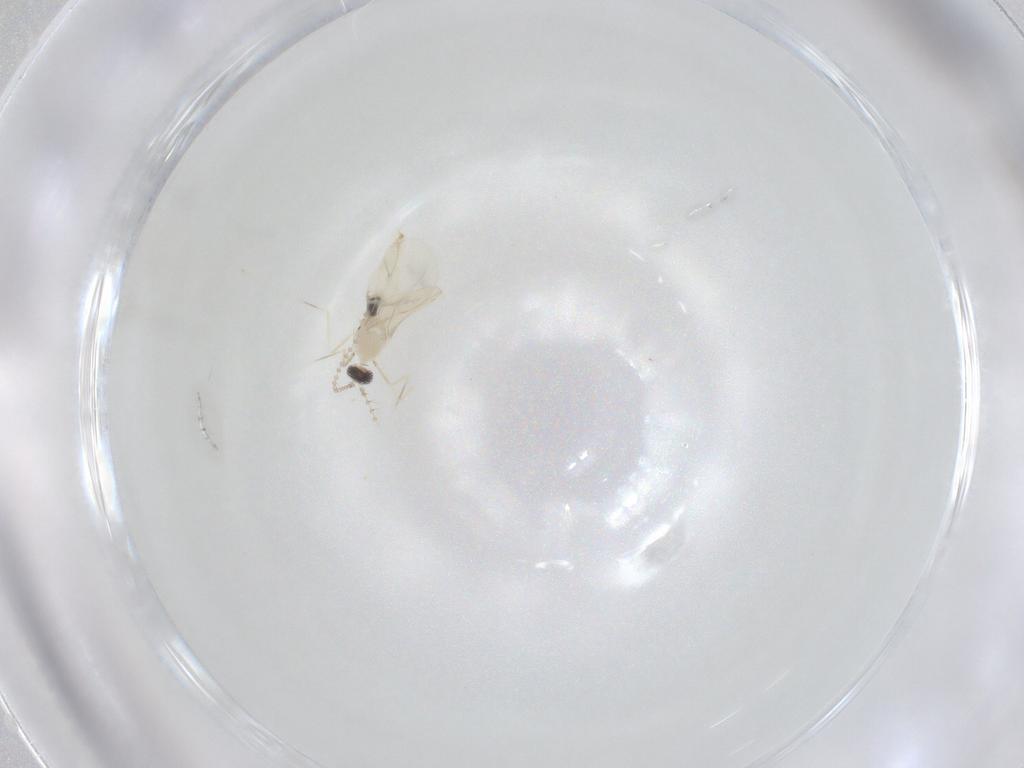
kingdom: Animalia
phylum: Arthropoda
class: Insecta
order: Diptera
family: Cecidomyiidae
